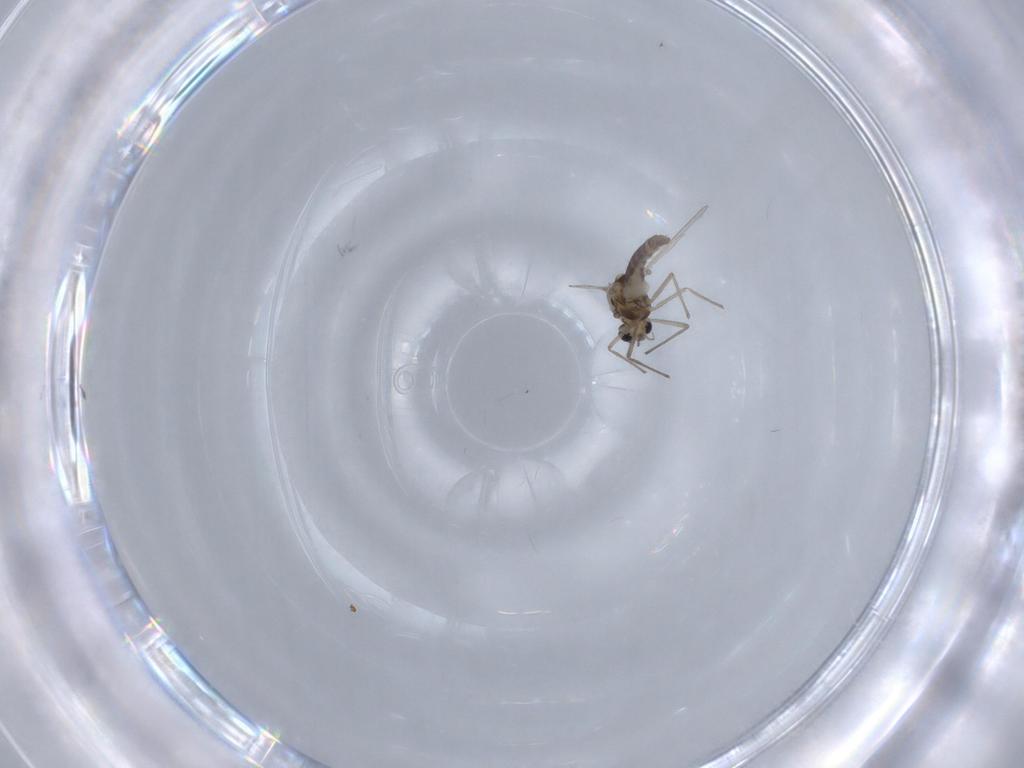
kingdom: Animalia
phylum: Arthropoda
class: Insecta
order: Diptera
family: Chironomidae
